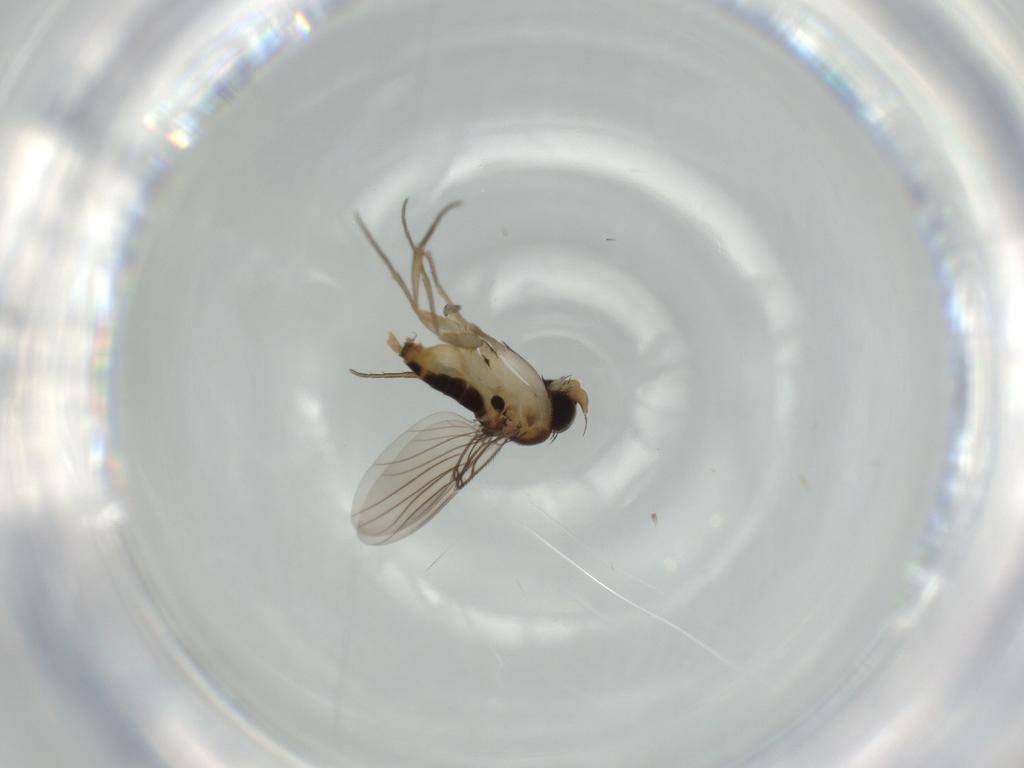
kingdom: Animalia
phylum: Arthropoda
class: Insecta
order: Diptera
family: Phoridae
